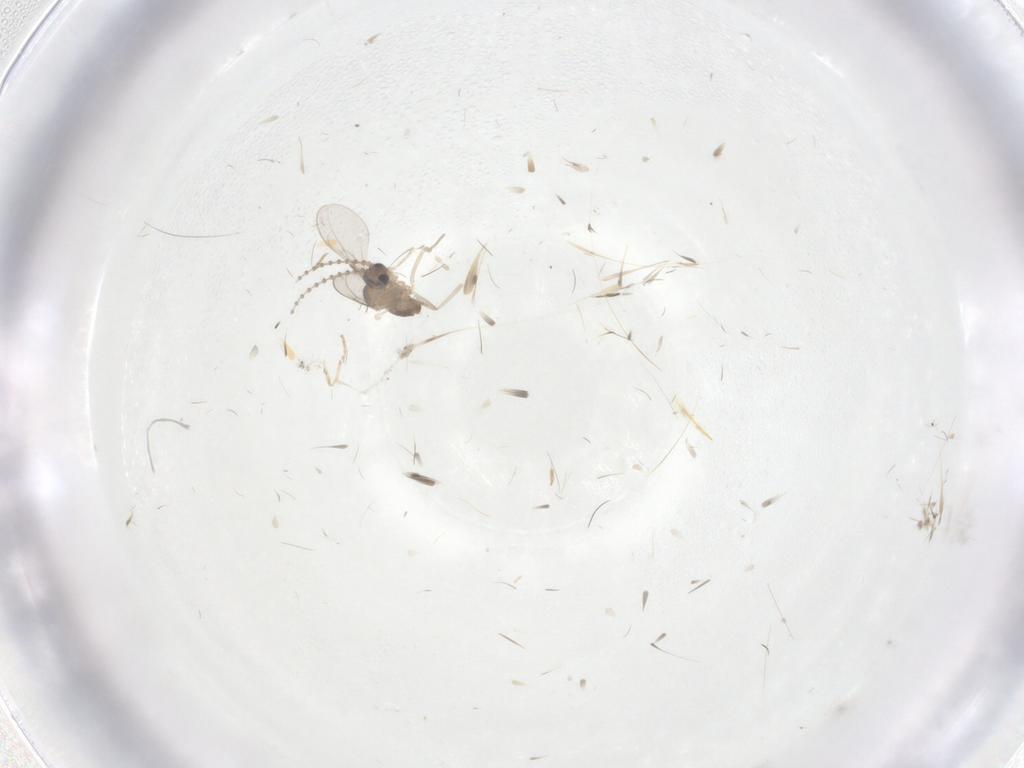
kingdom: Animalia
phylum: Arthropoda
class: Insecta
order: Diptera
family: Cecidomyiidae
